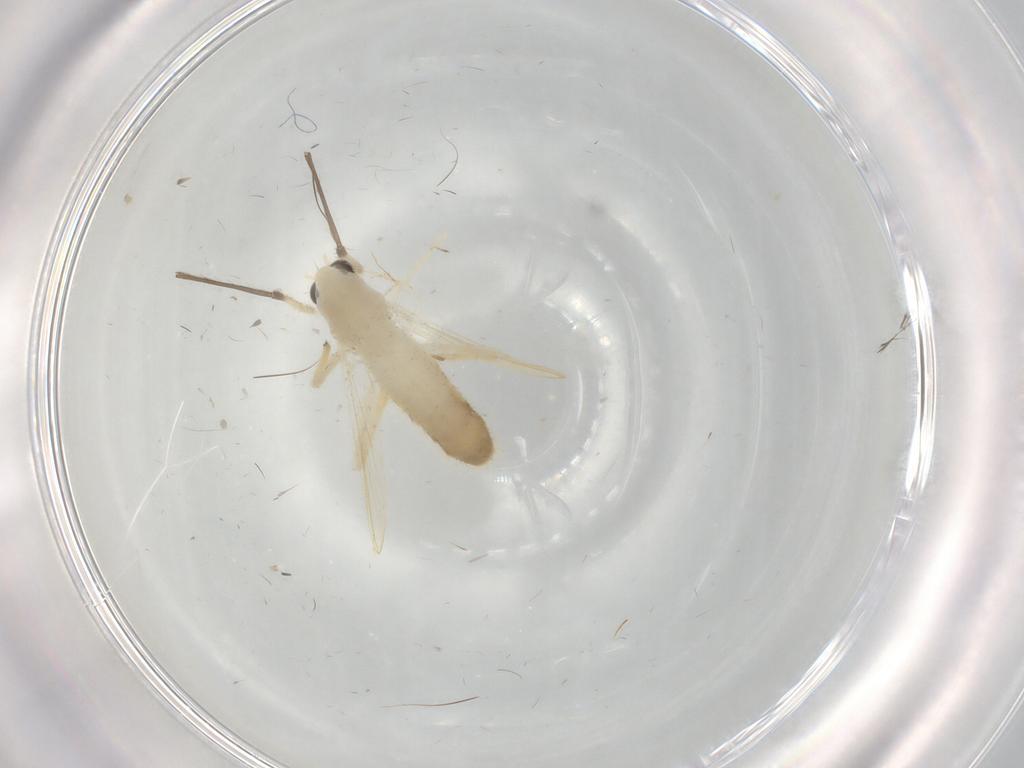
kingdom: Animalia
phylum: Arthropoda
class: Insecta
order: Diptera
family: Chironomidae
